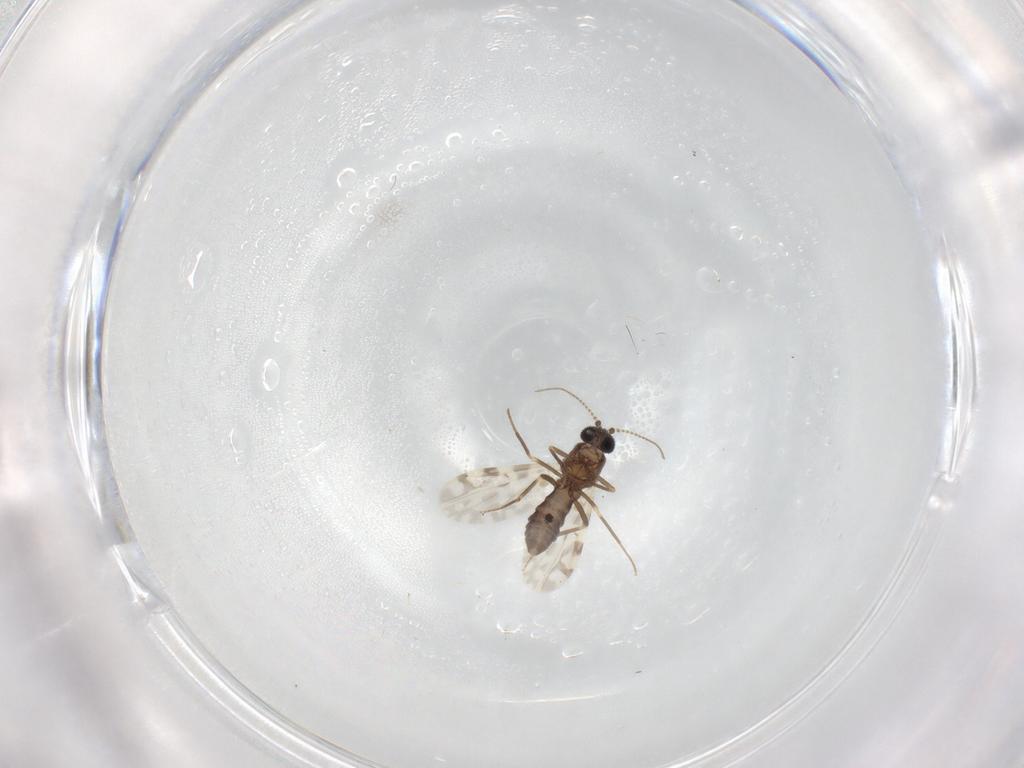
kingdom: Animalia
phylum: Arthropoda
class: Insecta
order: Diptera
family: Ceratopogonidae
